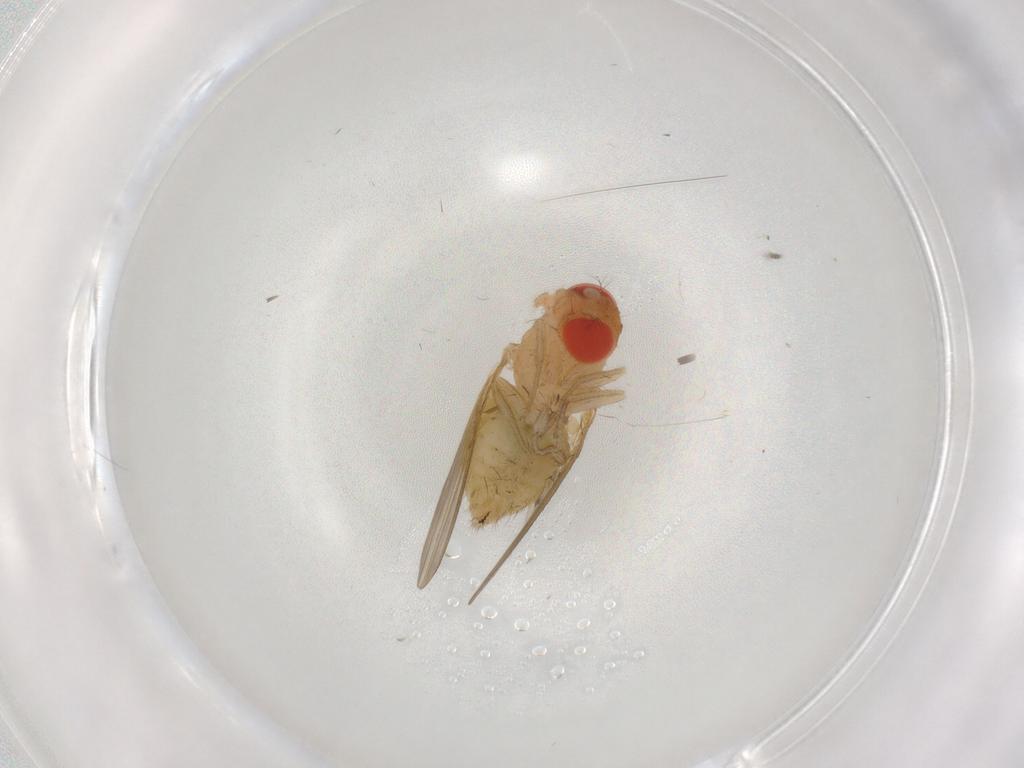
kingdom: Animalia
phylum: Arthropoda
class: Insecta
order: Diptera
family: Drosophilidae
